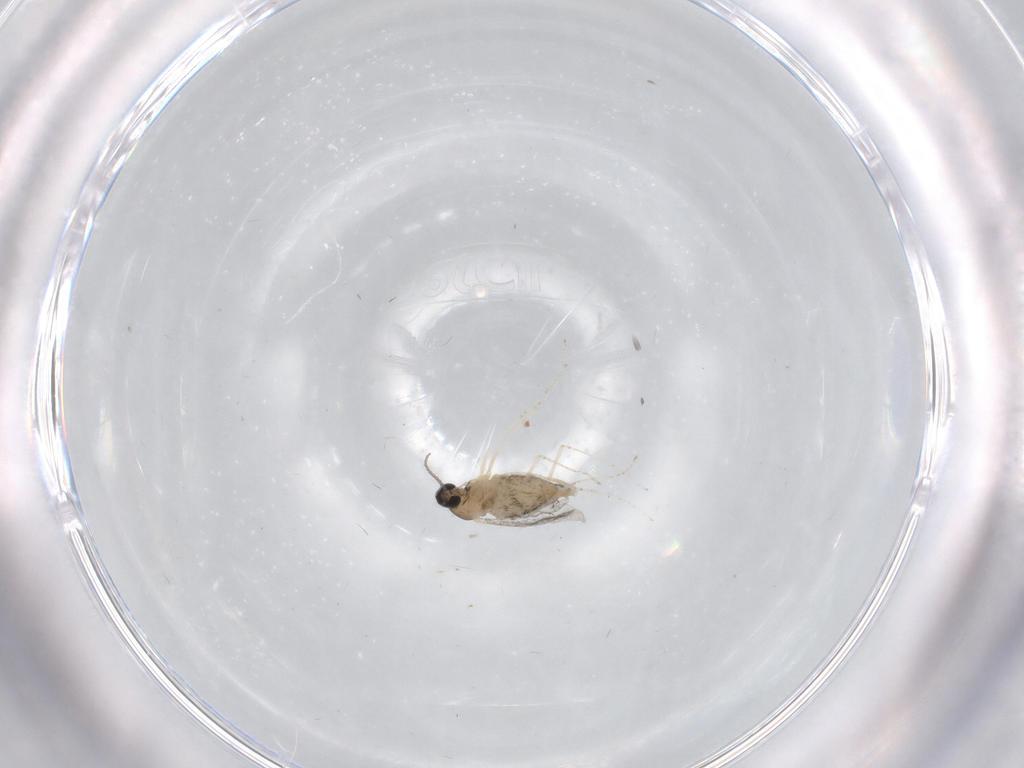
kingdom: Animalia
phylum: Arthropoda
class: Insecta
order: Diptera
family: Cecidomyiidae
